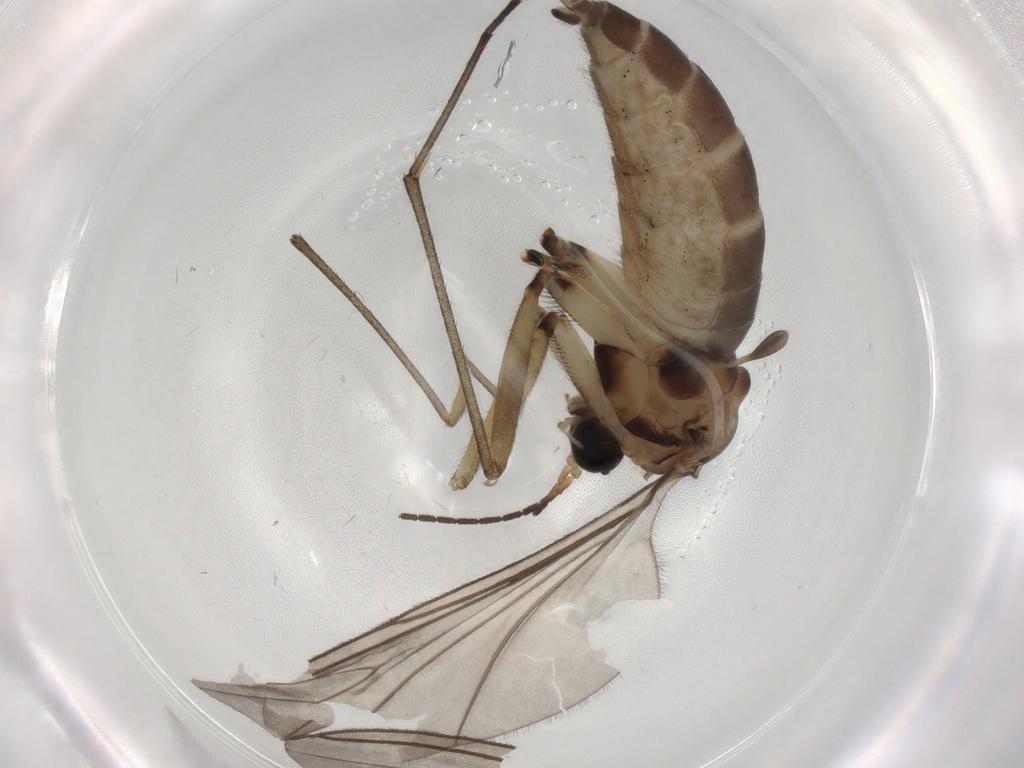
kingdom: Animalia
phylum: Arthropoda
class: Insecta
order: Diptera
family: Sciaridae
